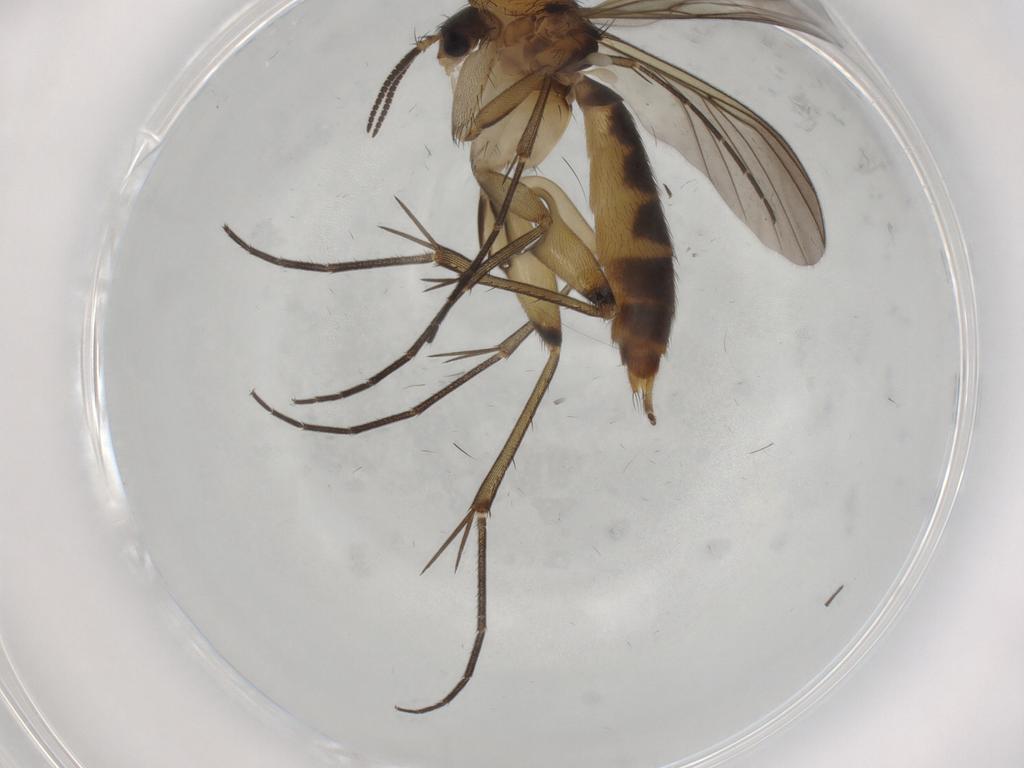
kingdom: Animalia
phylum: Arthropoda
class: Insecta
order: Diptera
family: Mycetophilidae
